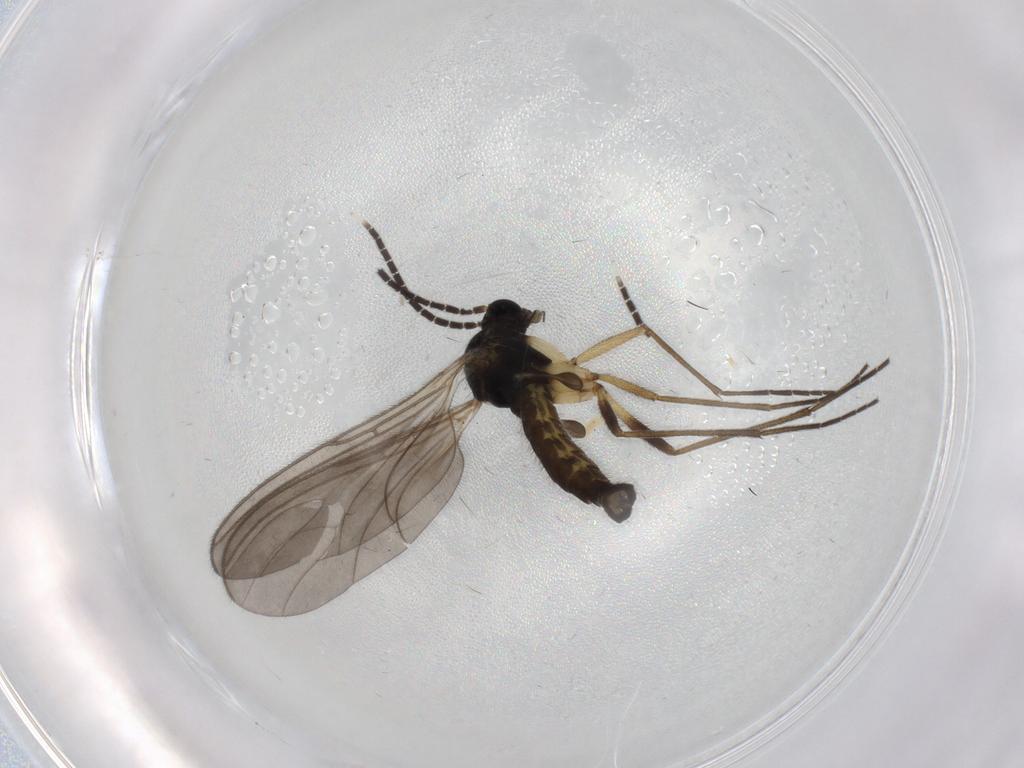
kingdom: Animalia
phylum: Arthropoda
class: Insecta
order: Diptera
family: Sciaridae
